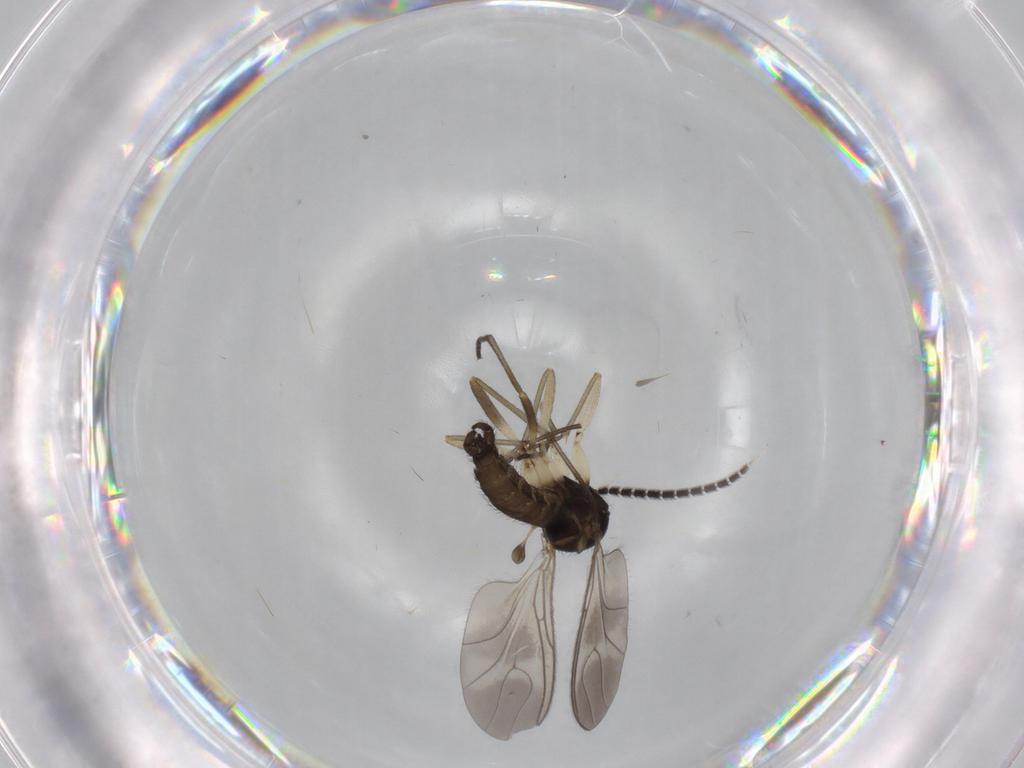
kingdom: Animalia
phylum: Arthropoda
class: Insecta
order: Diptera
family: Sciaridae
